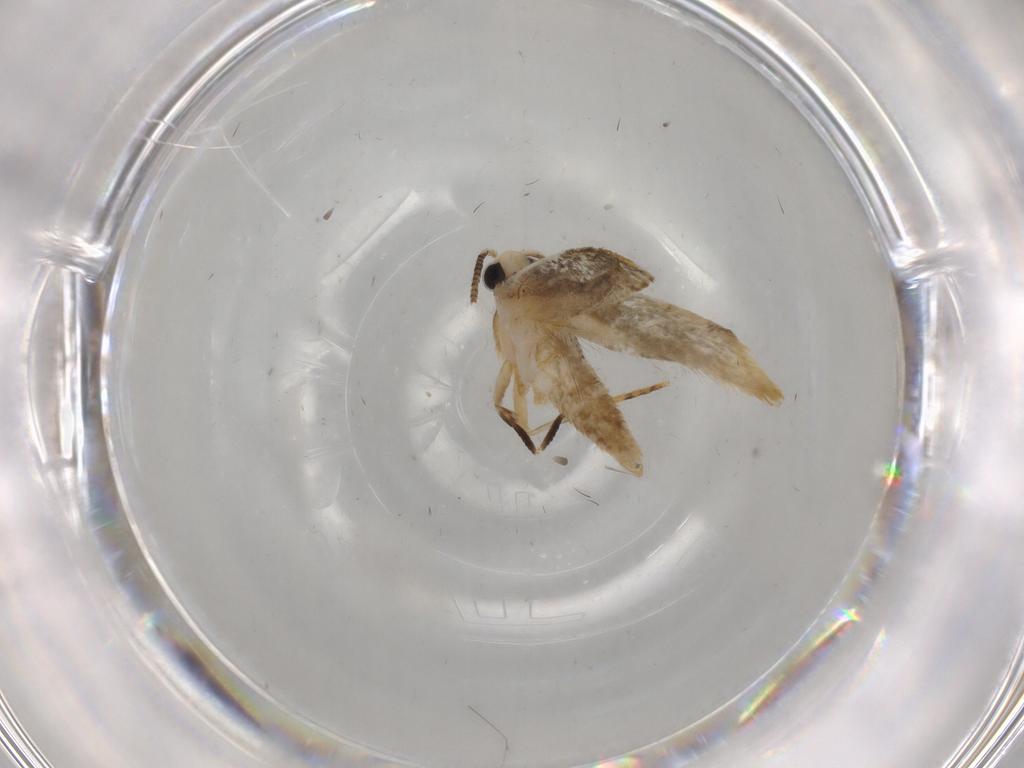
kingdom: Animalia
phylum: Arthropoda
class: Insecta
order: Lepidoptera
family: Tineidae
